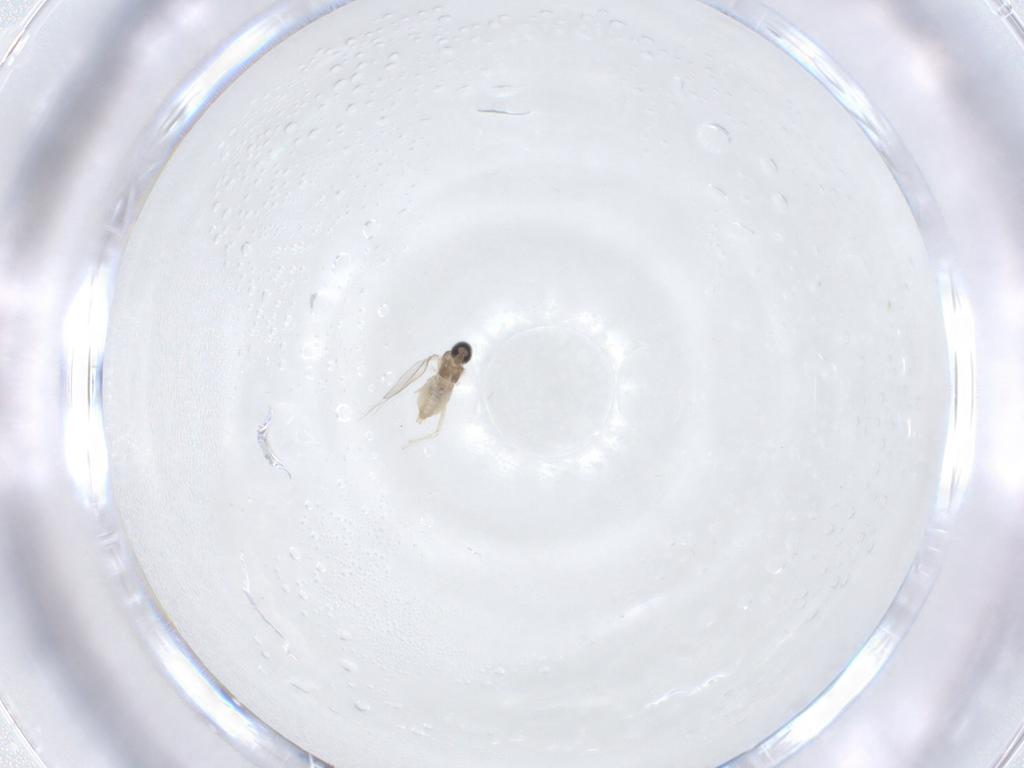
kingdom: Animalia
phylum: Arthropoda
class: Insecta
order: Diptera
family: Cecidomyiidae
